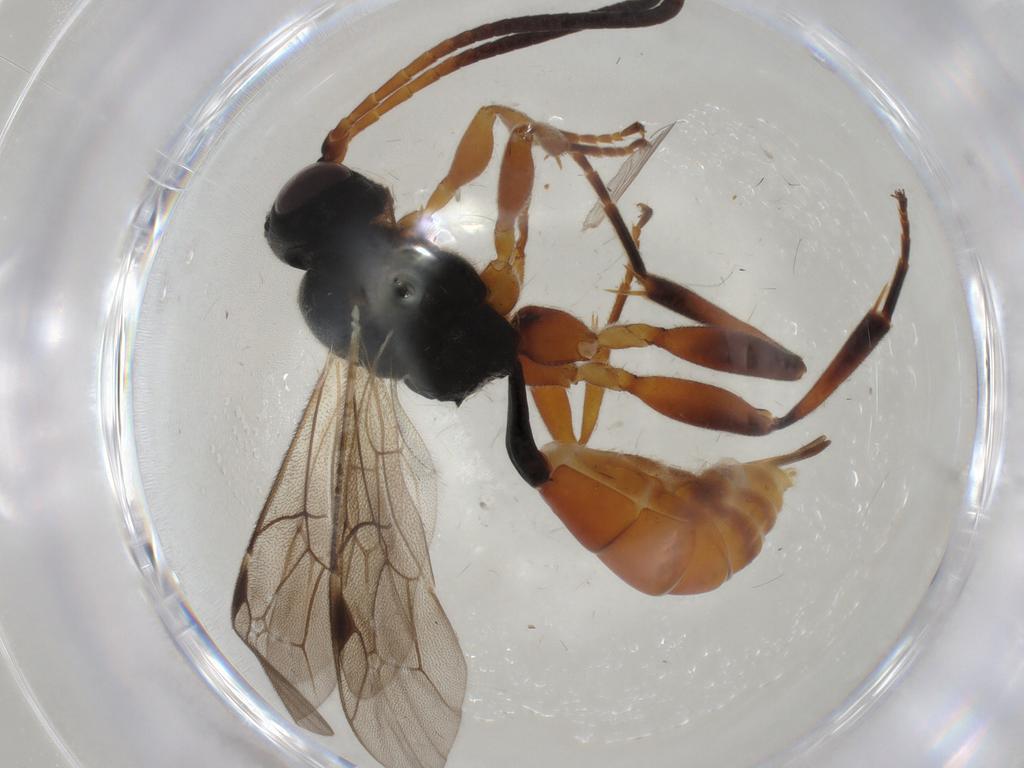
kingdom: Animalia
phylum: Arthropoda
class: Insecta
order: Hymenoptera
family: Ichneumonidae
